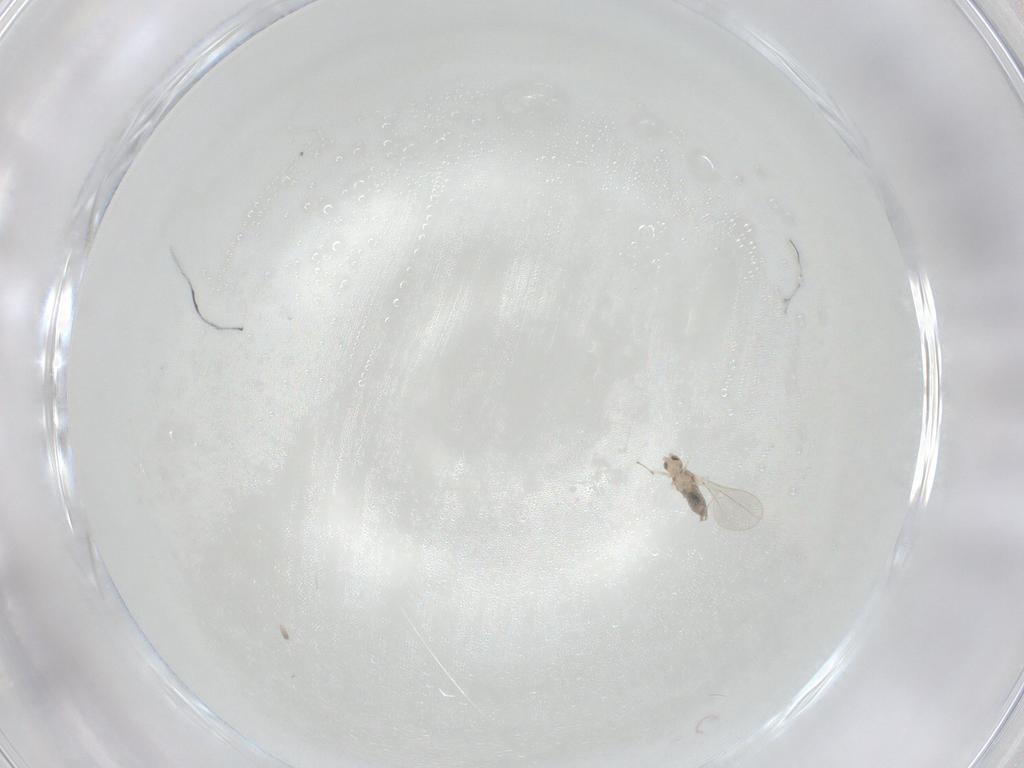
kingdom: Animalia
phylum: Arthropoda
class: Insecta
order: Diptera
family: Cecidomyiidae
